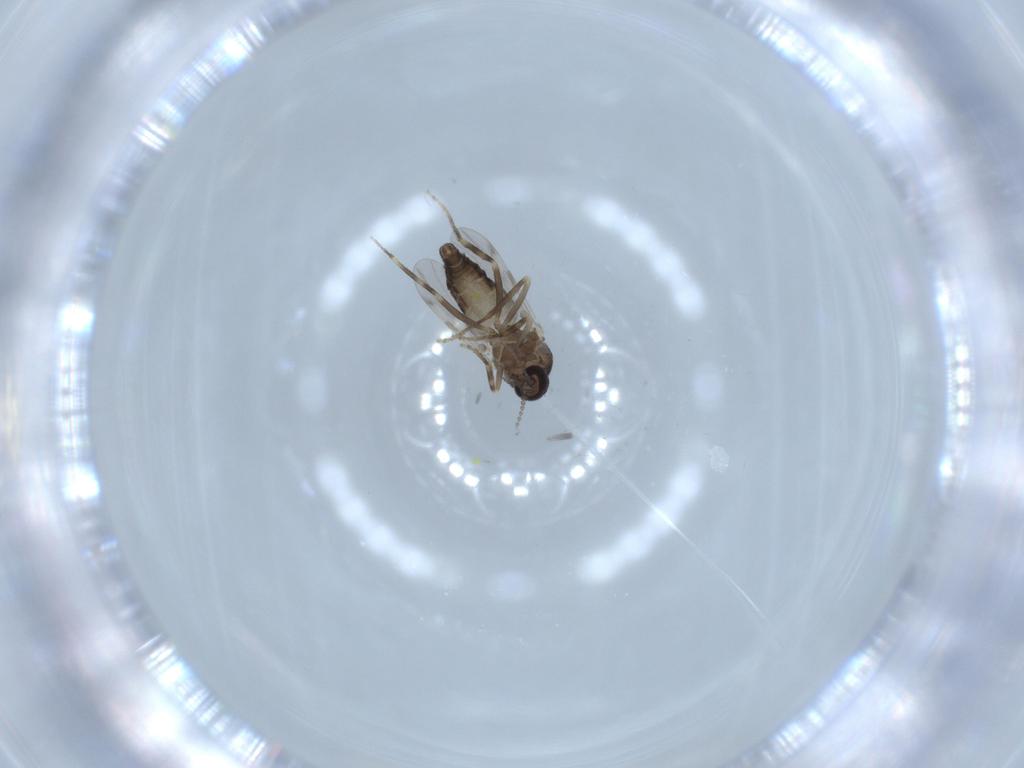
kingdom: Animalia
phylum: Arthropoda
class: Insecta
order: Diptera
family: Ceratopogonidae
